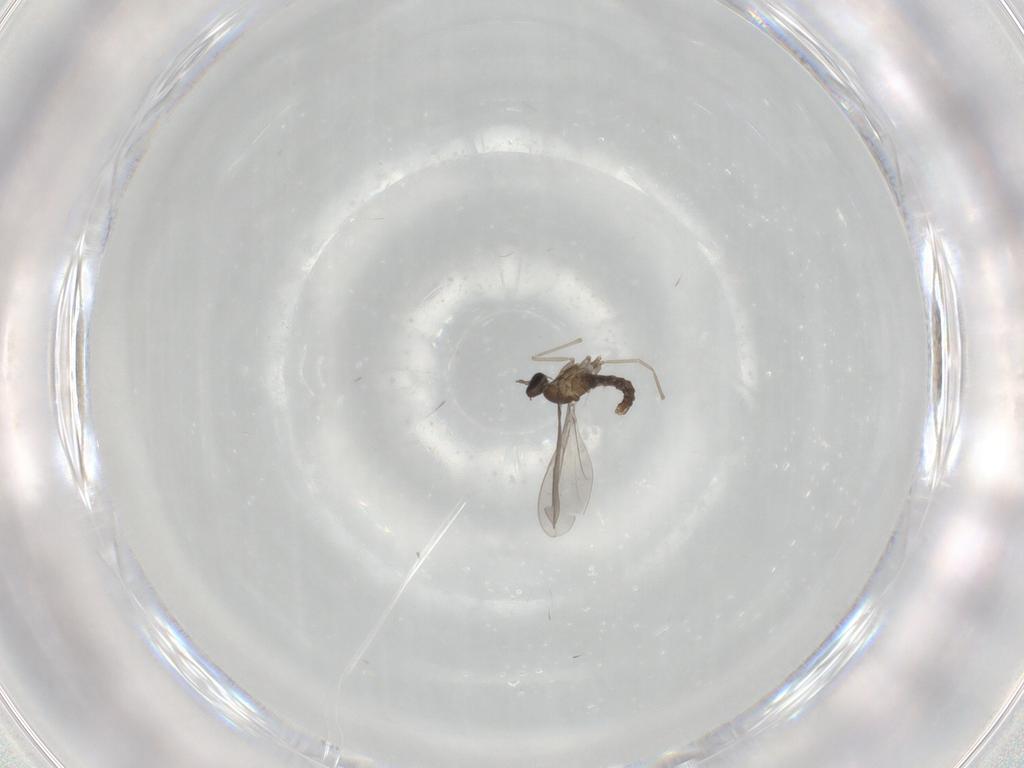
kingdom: Animalia
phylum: Arthropoda
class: Insecta
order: Diptera
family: Cecidomyiidae
